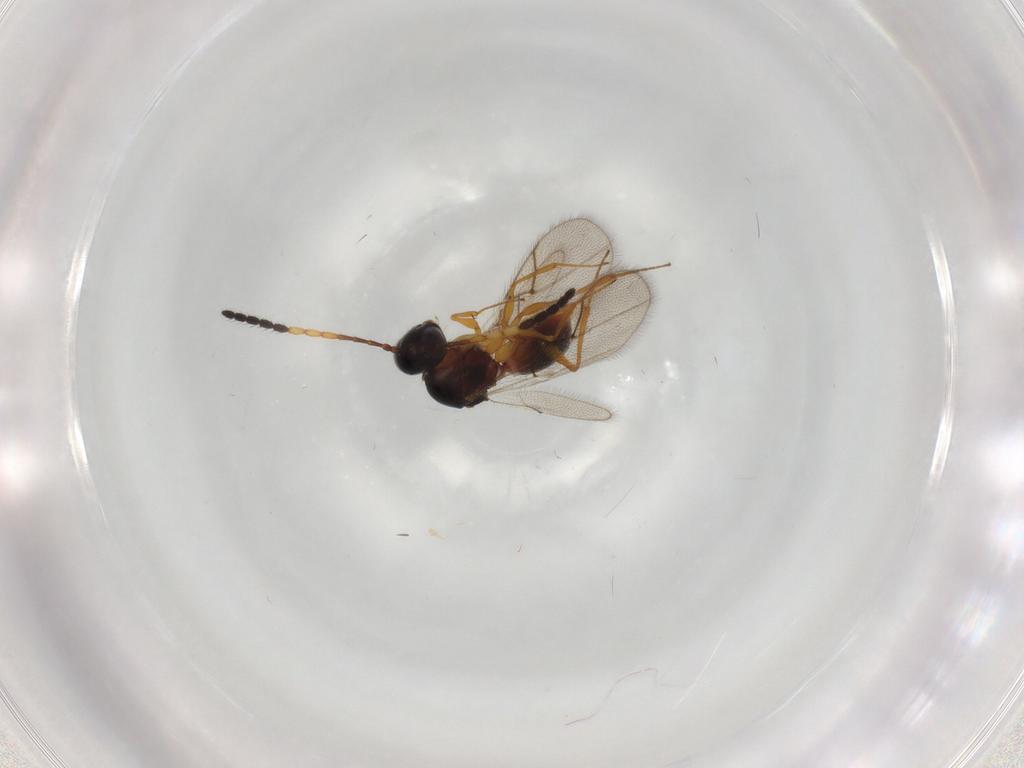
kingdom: Animalia
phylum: Arthropoda
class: Insecta
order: Hymenoptera
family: Figitidae
